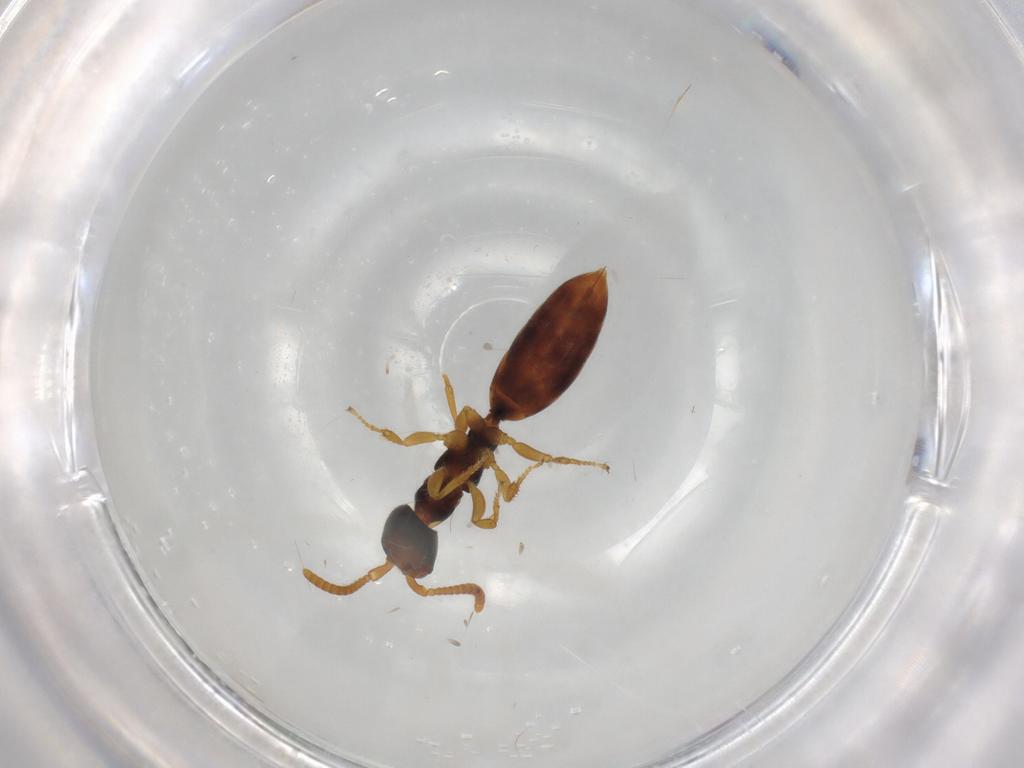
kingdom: Animalia
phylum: Arthropoda
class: Insecta
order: Hymenoptera
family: Bethylidae
